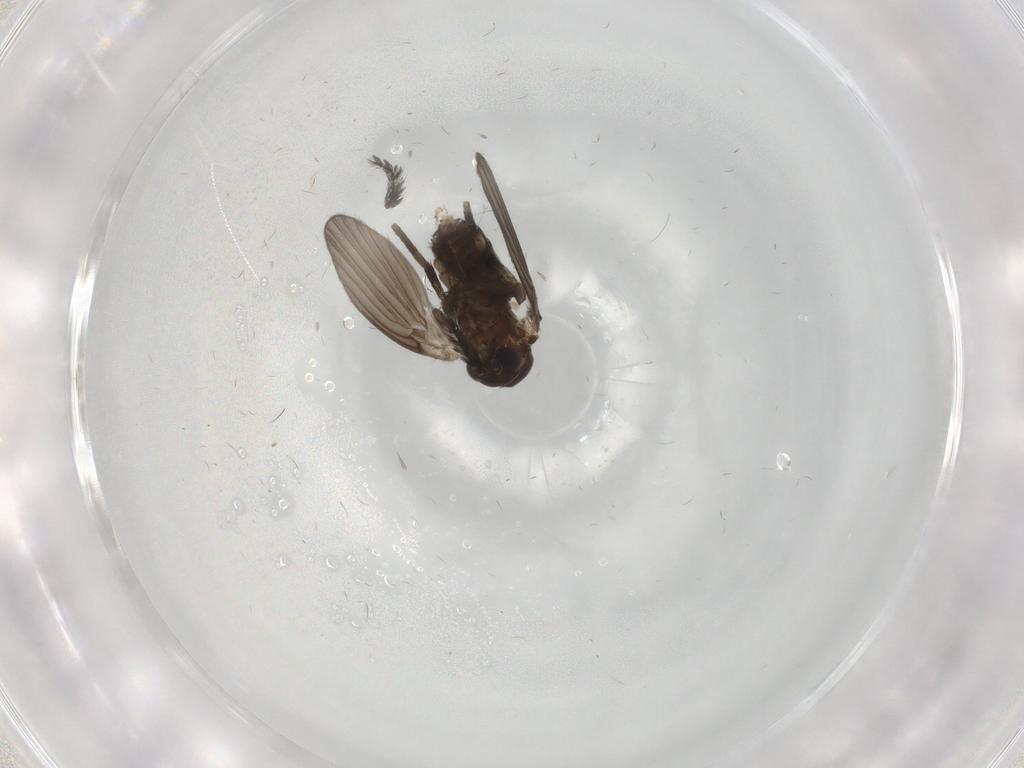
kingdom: Animalia
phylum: Arthropoda
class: Insecta
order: Diptera
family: Psychodidae
